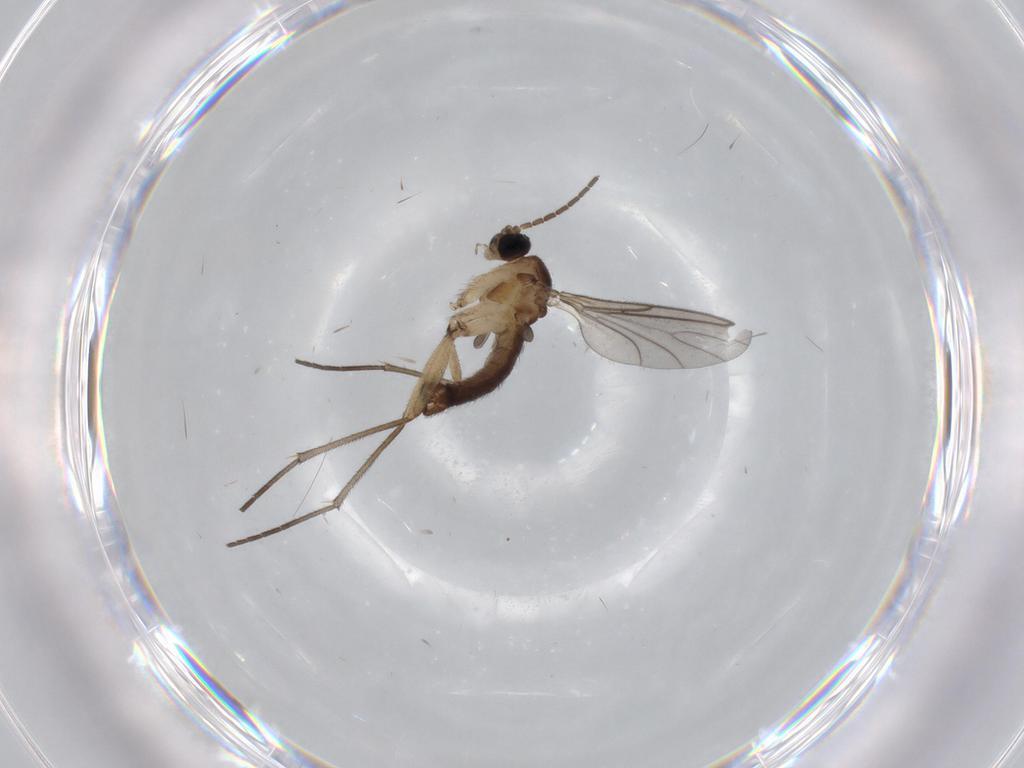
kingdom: Animalia
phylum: Arthropoda
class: Insecta
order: Diptera
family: Sciaridae
